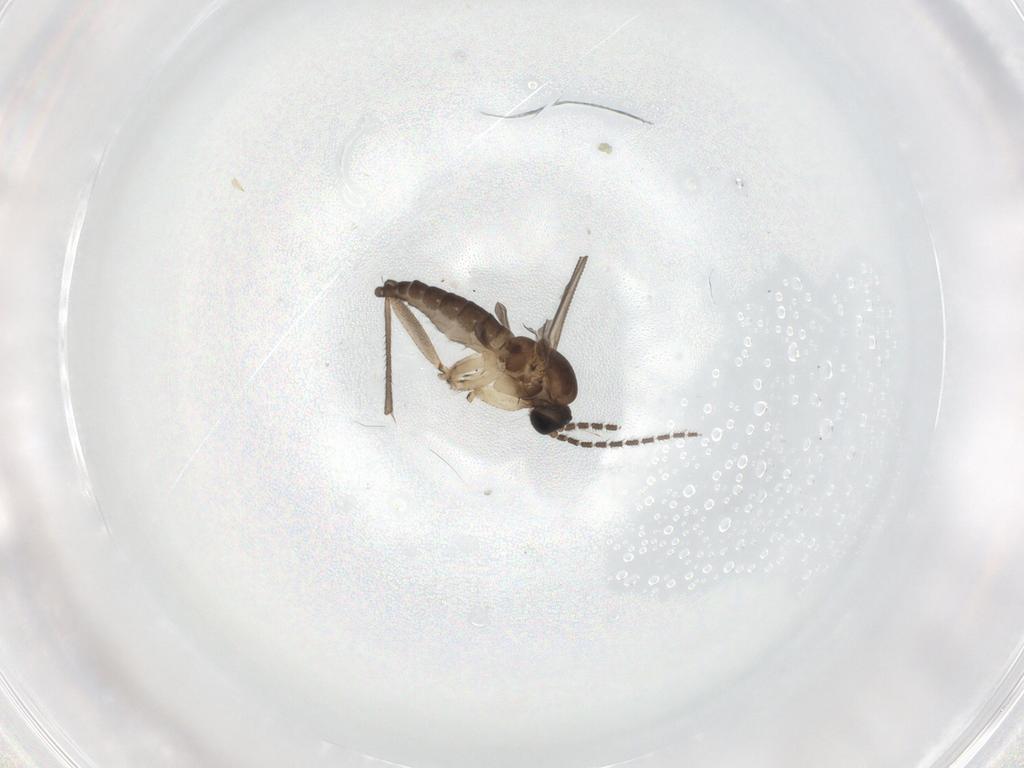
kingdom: Animalia
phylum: Arthropoda
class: Insecta
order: Diptera
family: Sciaridae
